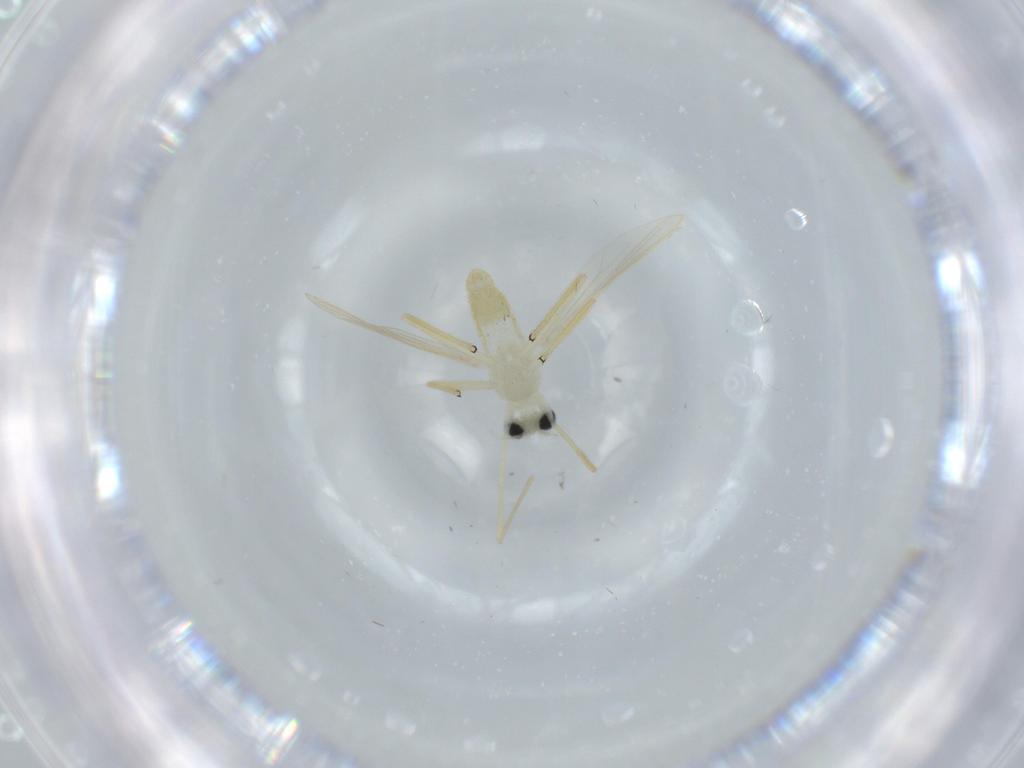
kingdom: Animalia
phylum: Arthropoda
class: Insecta
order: Diptera
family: Chironomidae
